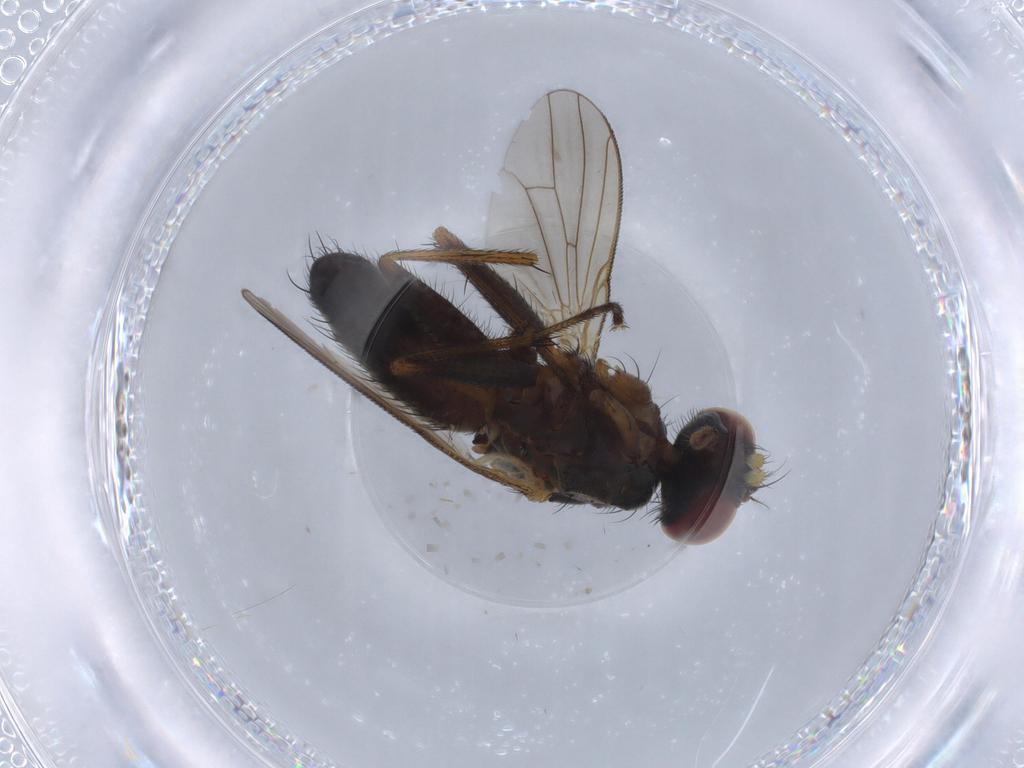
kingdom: Animalia
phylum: Arthropoda
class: Insecta
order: Diptera
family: Muscidae
